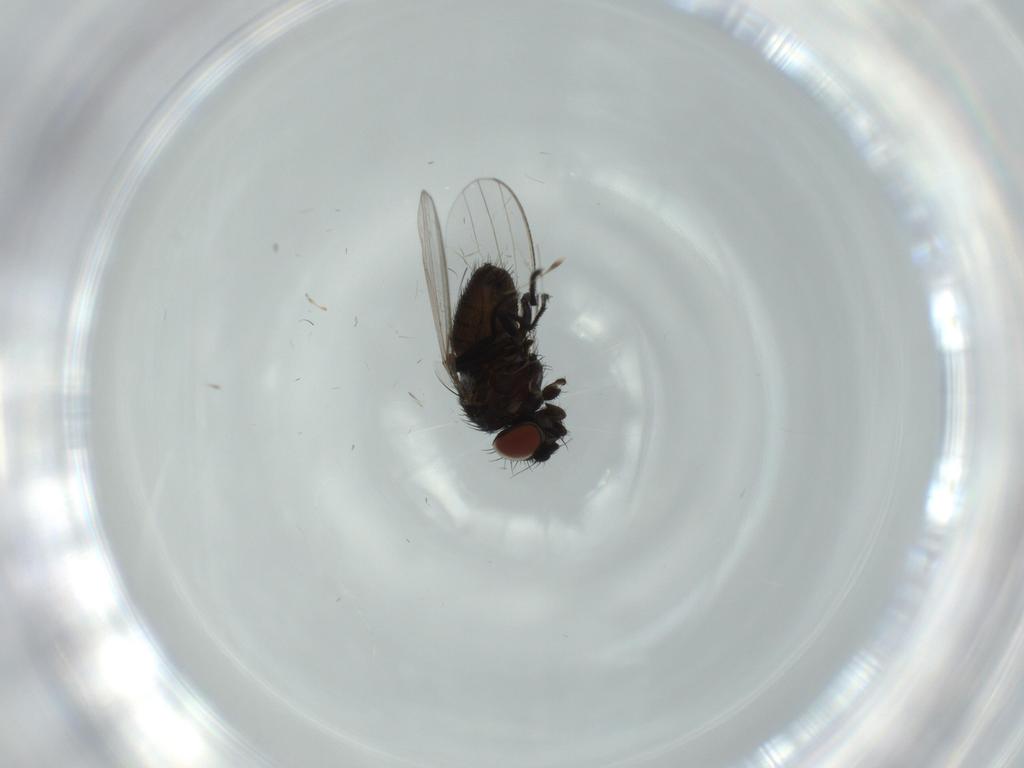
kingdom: Animalia
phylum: Arthropoda
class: Insecta
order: Diptera
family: Milichiidae
